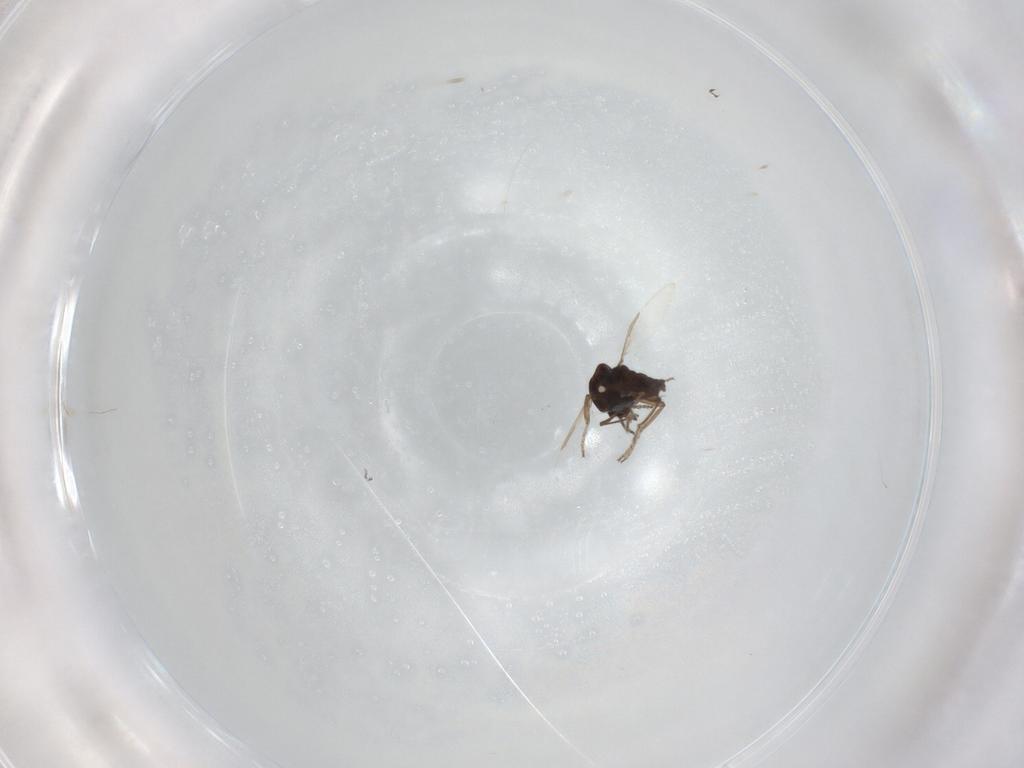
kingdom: Animalia
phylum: Arthropoda
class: Insecta
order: Diptera
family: Ceratopogonidae
